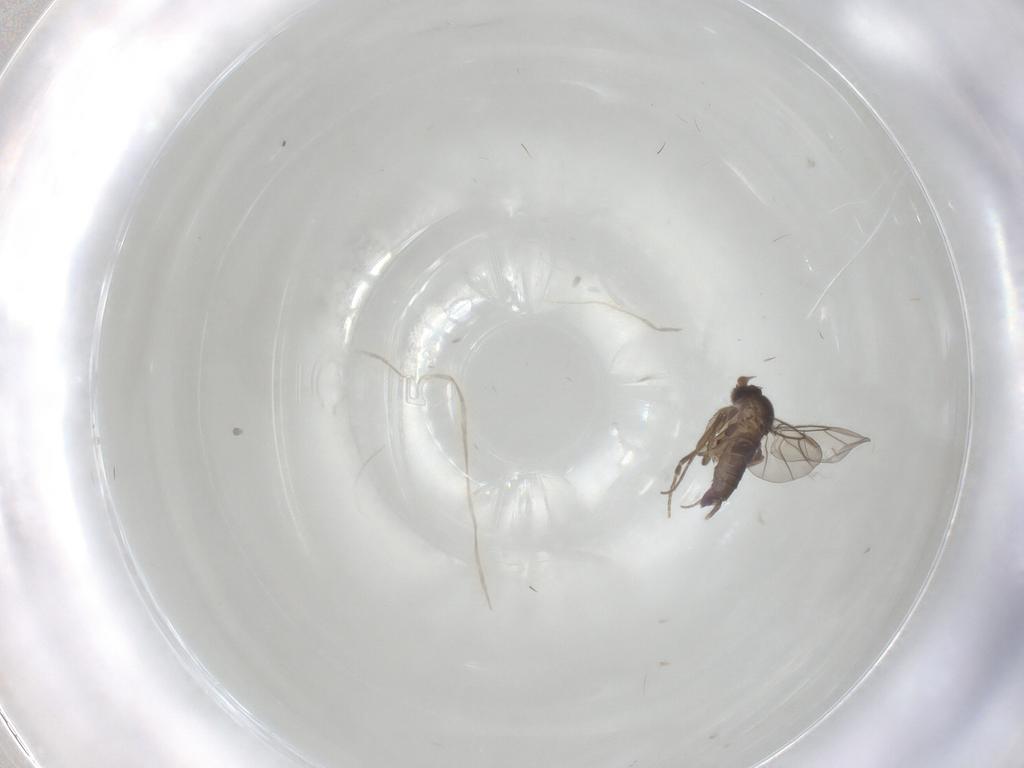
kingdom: Animalia
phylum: Arthropoda
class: Insecta
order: Diptera
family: Phoridae
